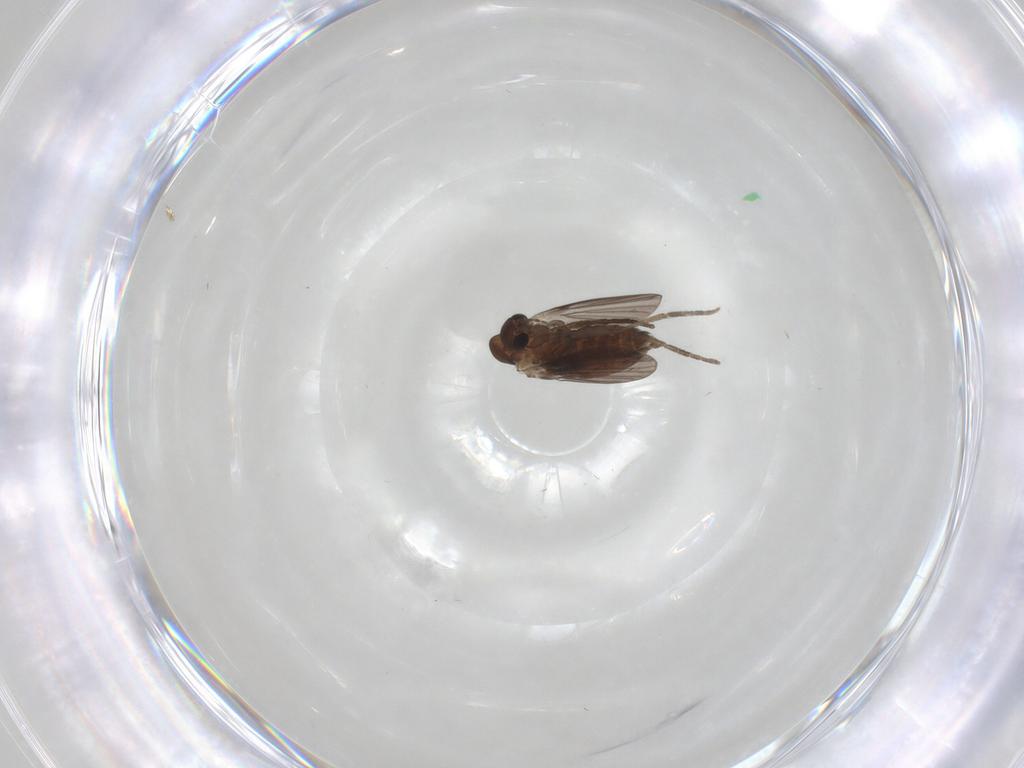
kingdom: Animalia
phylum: Arthropoda
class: Insecta
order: Diptera
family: Psychodidae
